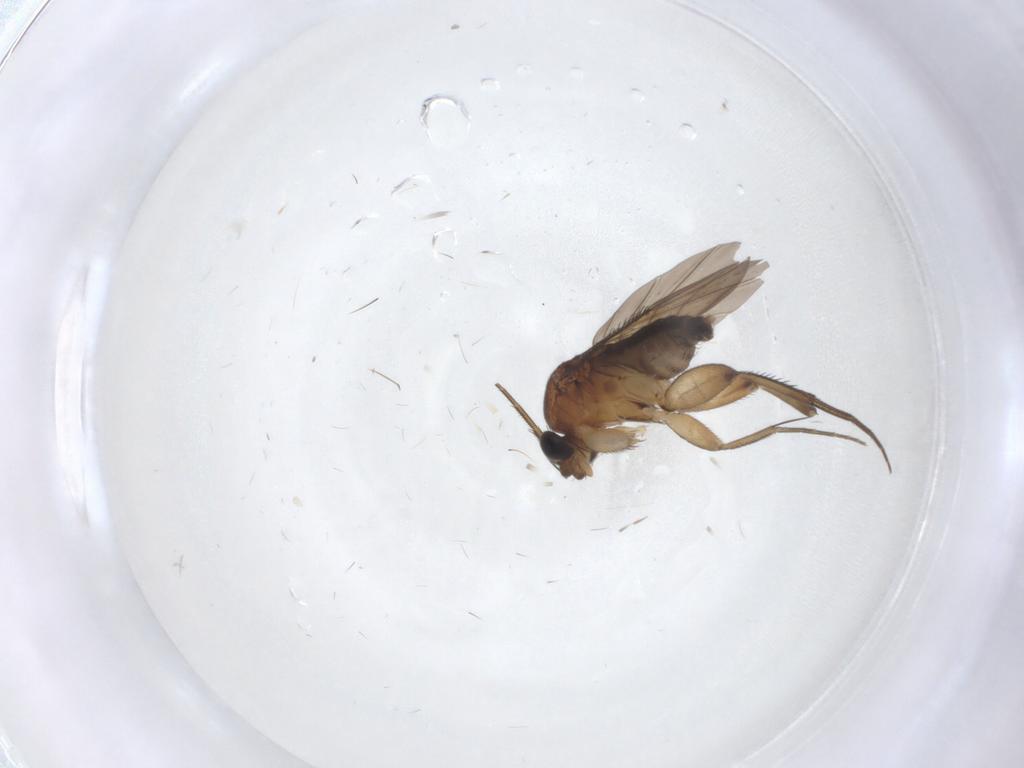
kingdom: Animalia
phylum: Arthropoda
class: Insecta
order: Diptera
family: Phoridae
